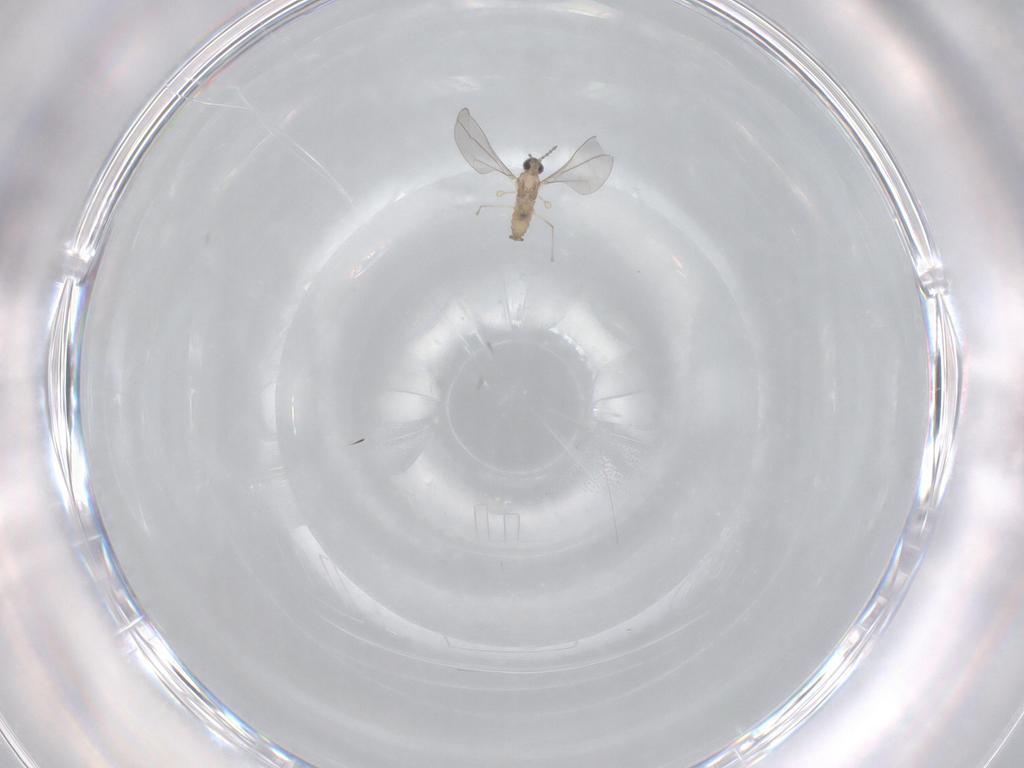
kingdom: Animalia
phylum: Arthropoda
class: Insecta
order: Diptera
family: Cecidomyiidae
